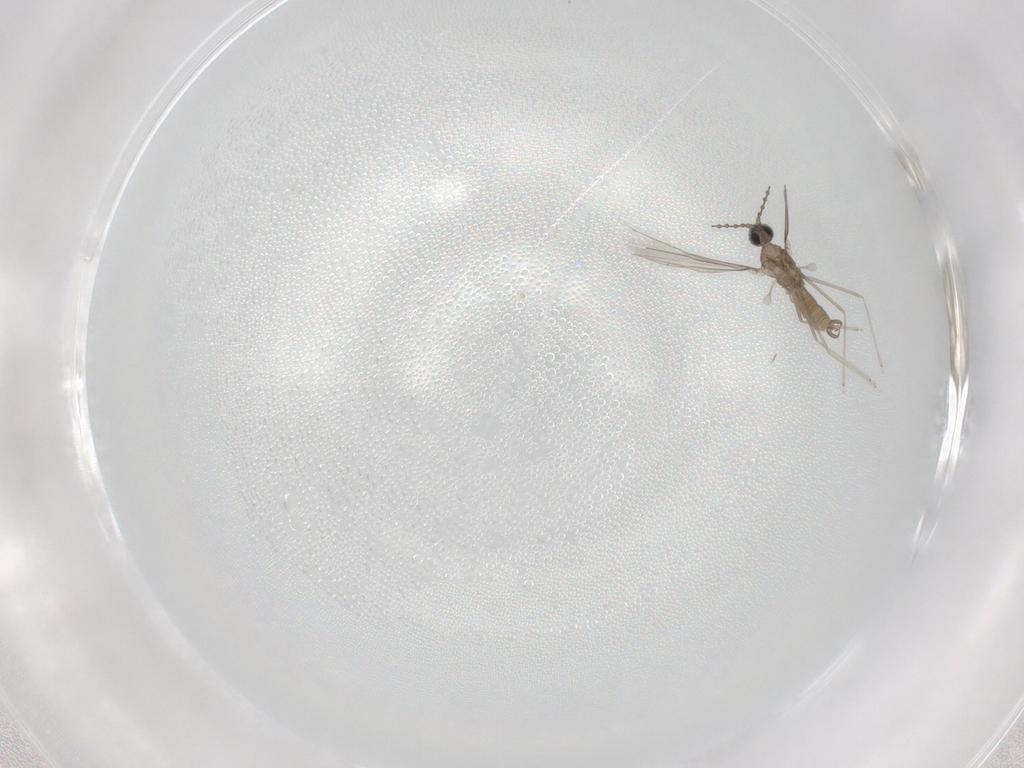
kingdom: Animalia
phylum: Arthropoda
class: Insecta
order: Diptera
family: Cecidomyiidae
